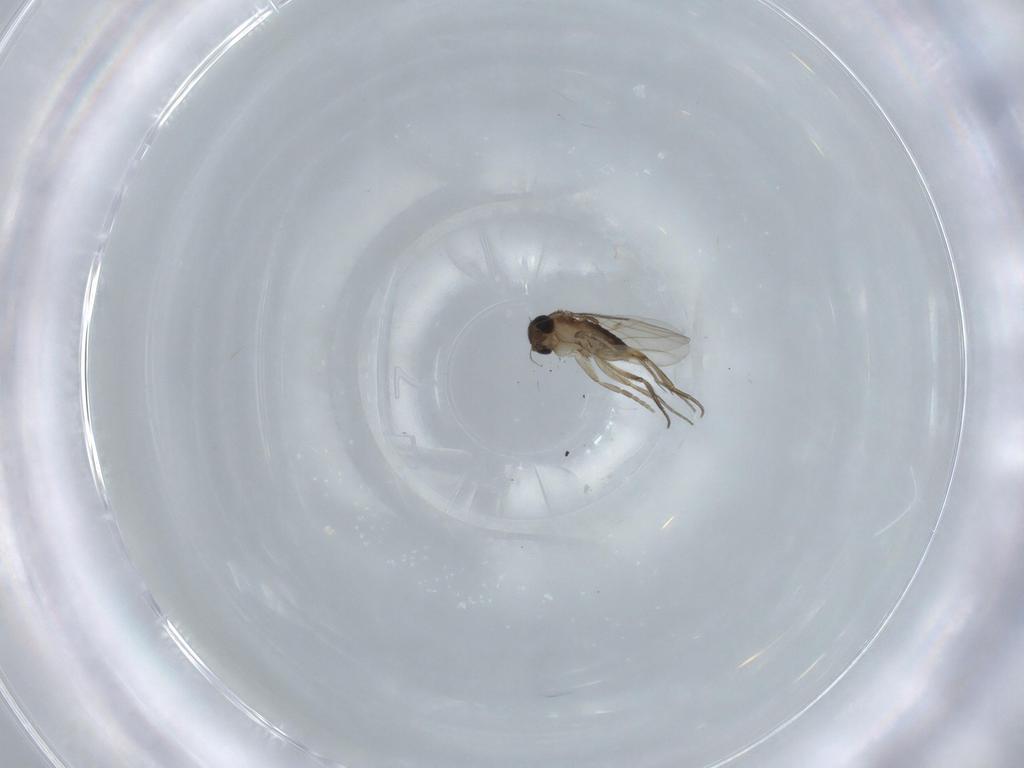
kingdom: Animalia
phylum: Arthropoda
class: Insecta
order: Diptera
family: Phoridae
